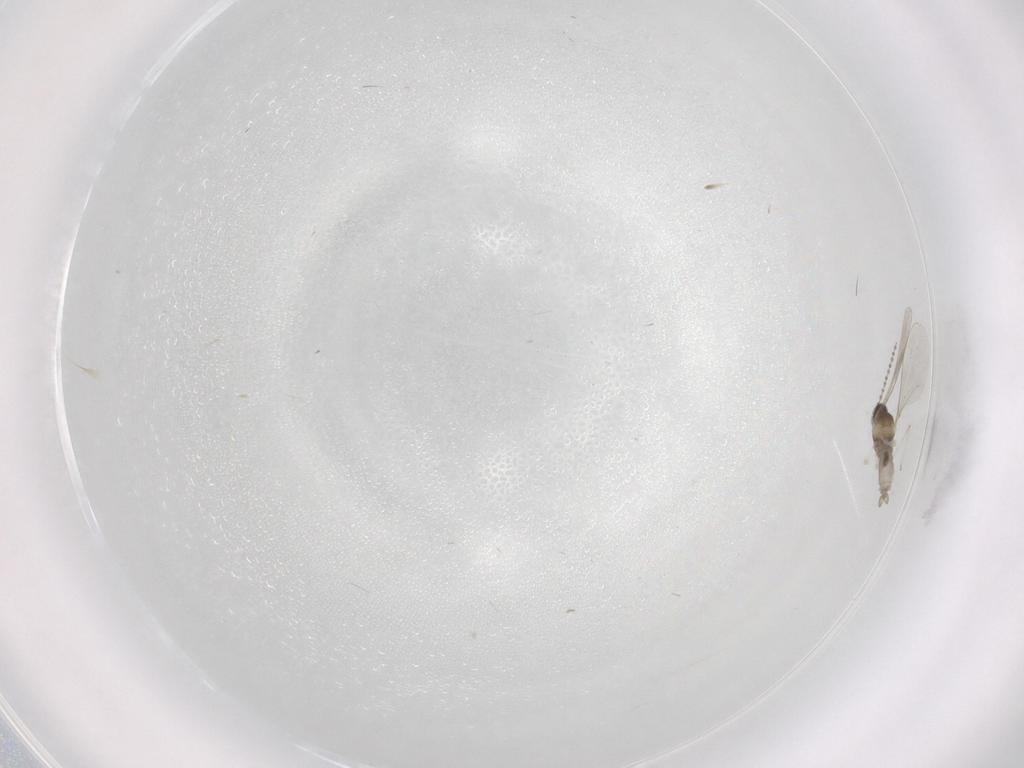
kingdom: Animalia
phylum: Arthropoda
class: Insecta
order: Diptera
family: Cecidomyiidae
